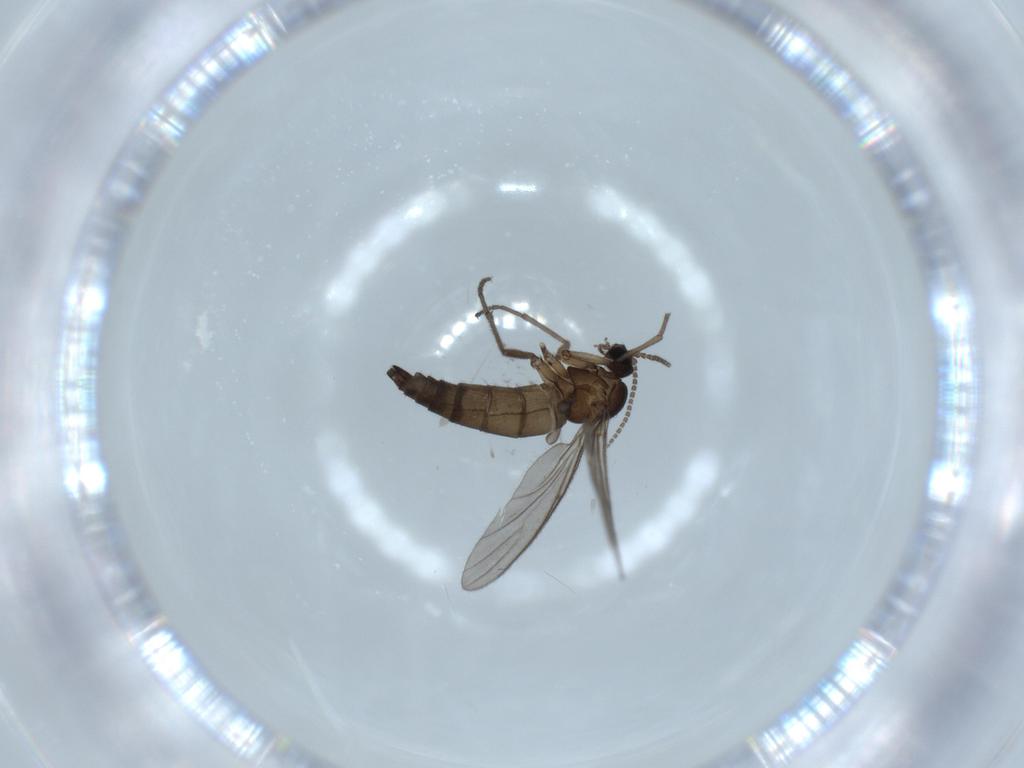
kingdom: Animalia
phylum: Arthropoda
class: Insecta
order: Diptera
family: Sciaridae
